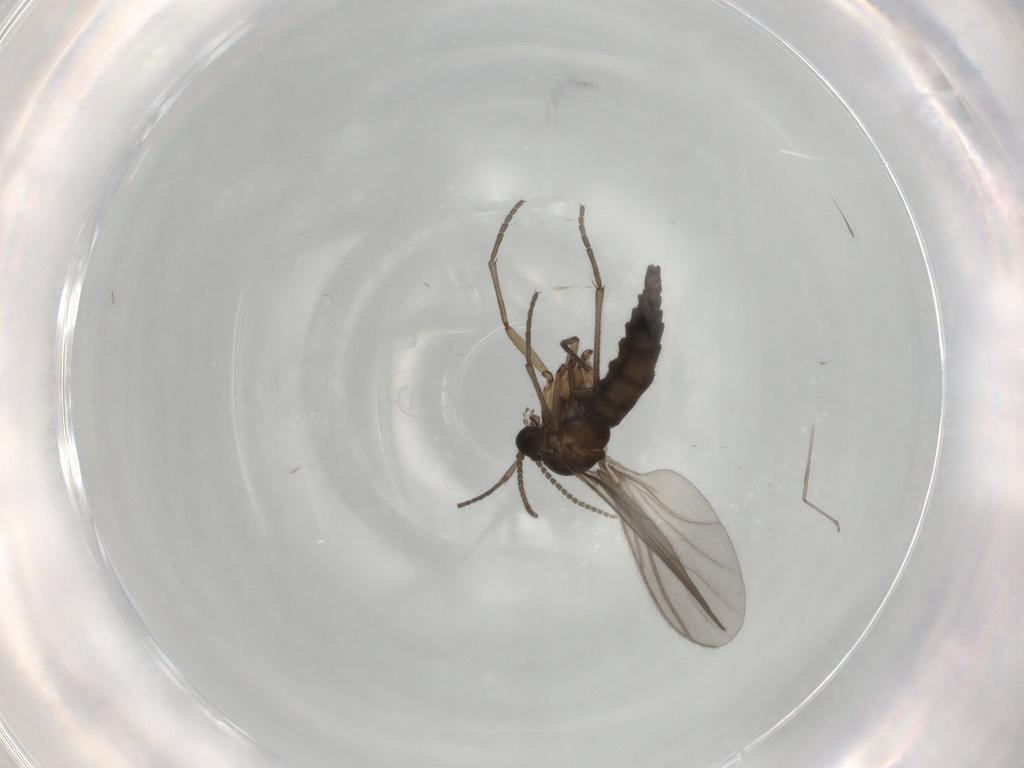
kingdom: Animalia
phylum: Arthropoda
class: Insecta
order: Diptera
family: Sciaridae
